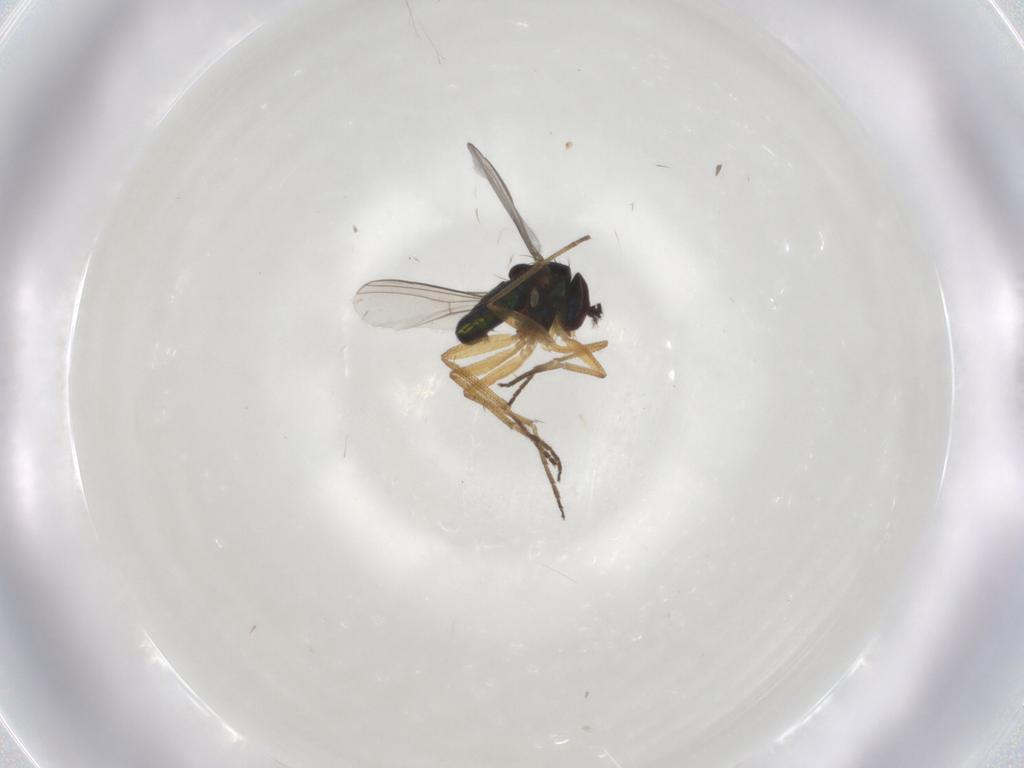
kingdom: Animalia
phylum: Arthropoda
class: Insecta
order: Diptera
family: Dolichopodidae
